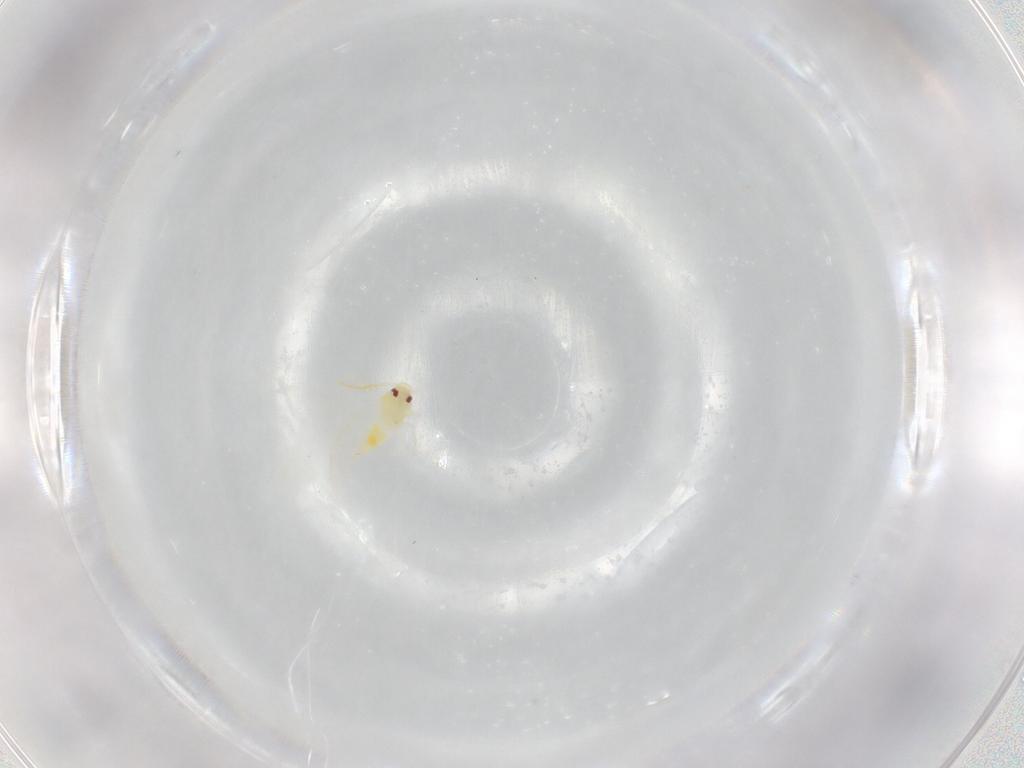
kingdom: Animalia
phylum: Arthropoda
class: Insecta
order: Hemiptera
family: Aleyrodidae
